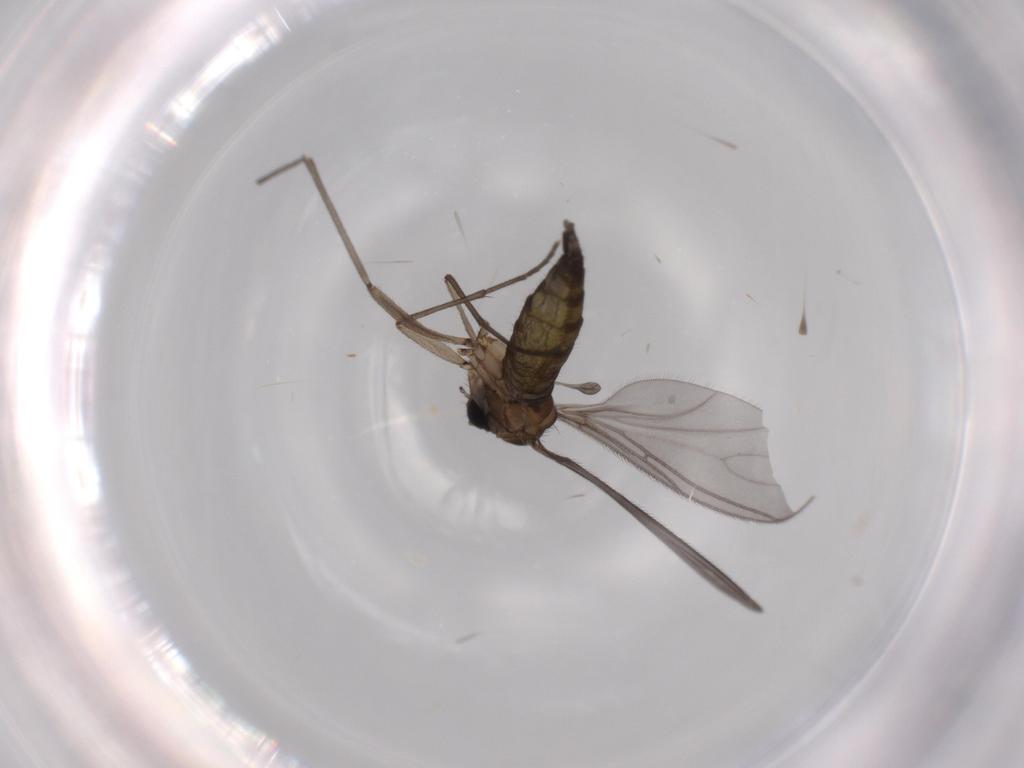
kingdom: Animalia
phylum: Arthropoda
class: Insecta
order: Diptera
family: Sciaridae
